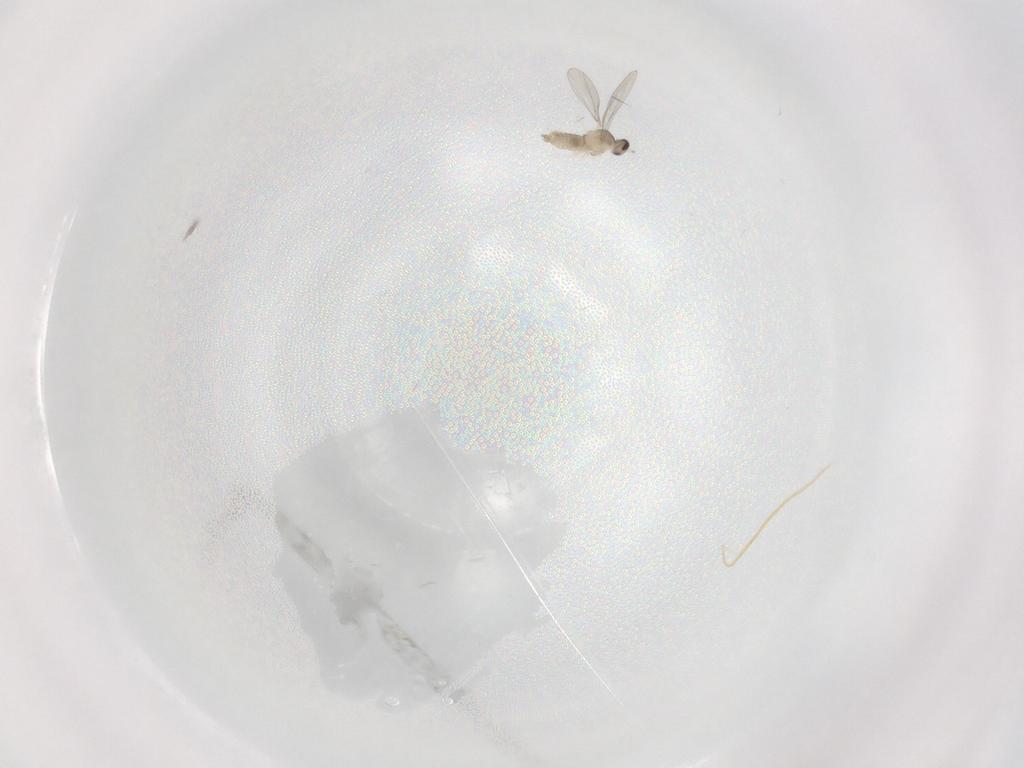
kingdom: Animalia
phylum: Arthropoda
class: Insecta
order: Diptera
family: Cecidomyiidae
